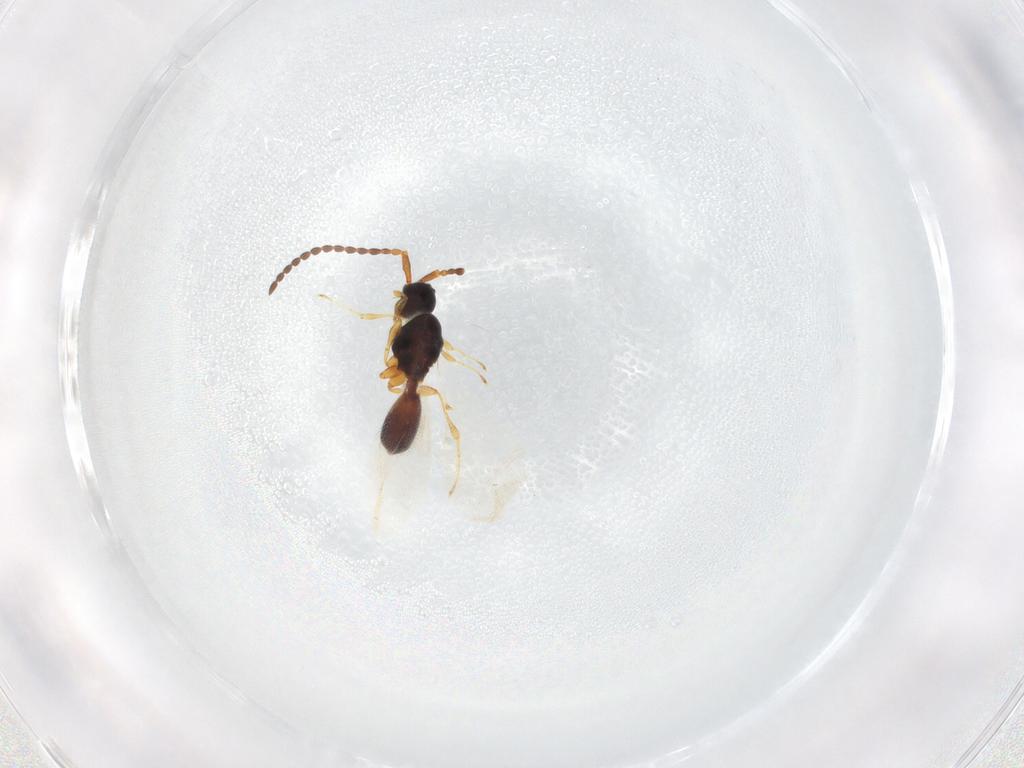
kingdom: Animalia
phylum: Arthropoda
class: Insecta
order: Hymenoptera
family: Diapriidae
